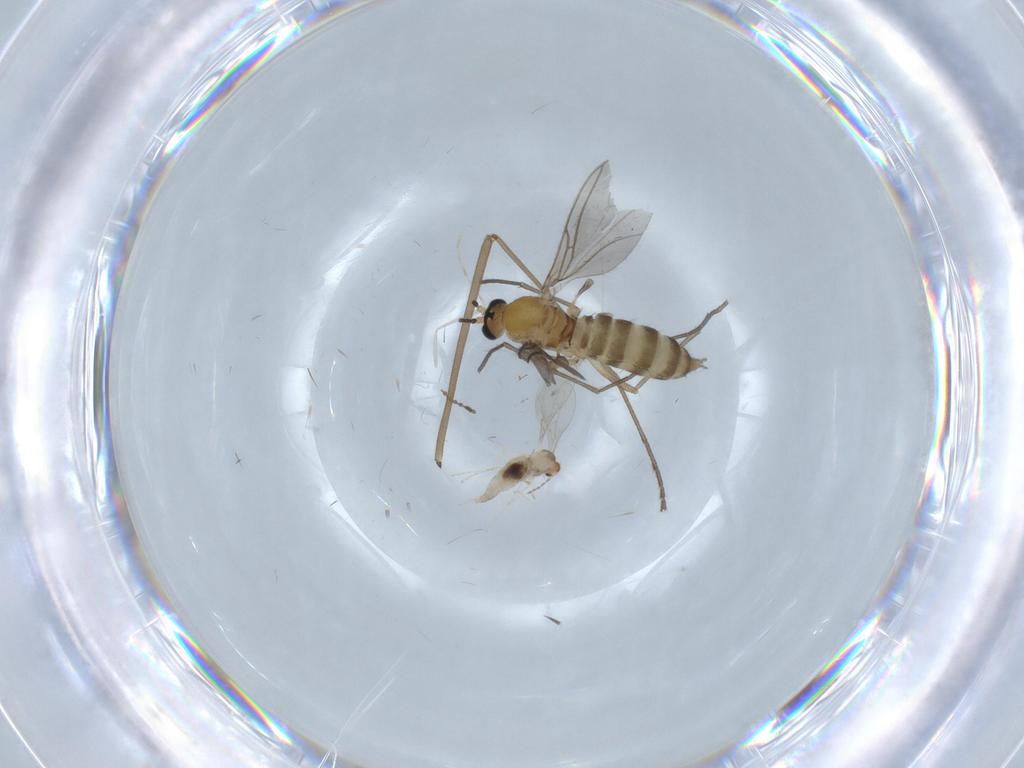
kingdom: Animalia
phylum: Arthropoda
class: Insecta
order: Diptera
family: Sciaridae
